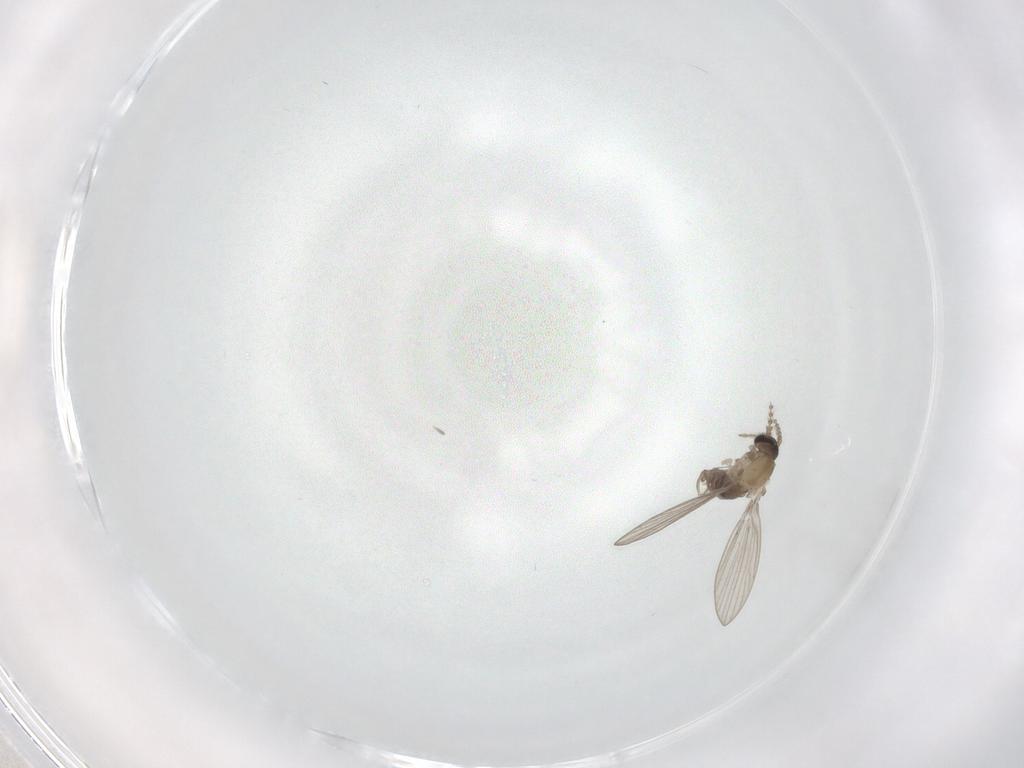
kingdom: Animalia
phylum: Arthropoda
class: Insecta
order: Diptera
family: Psychodidae
